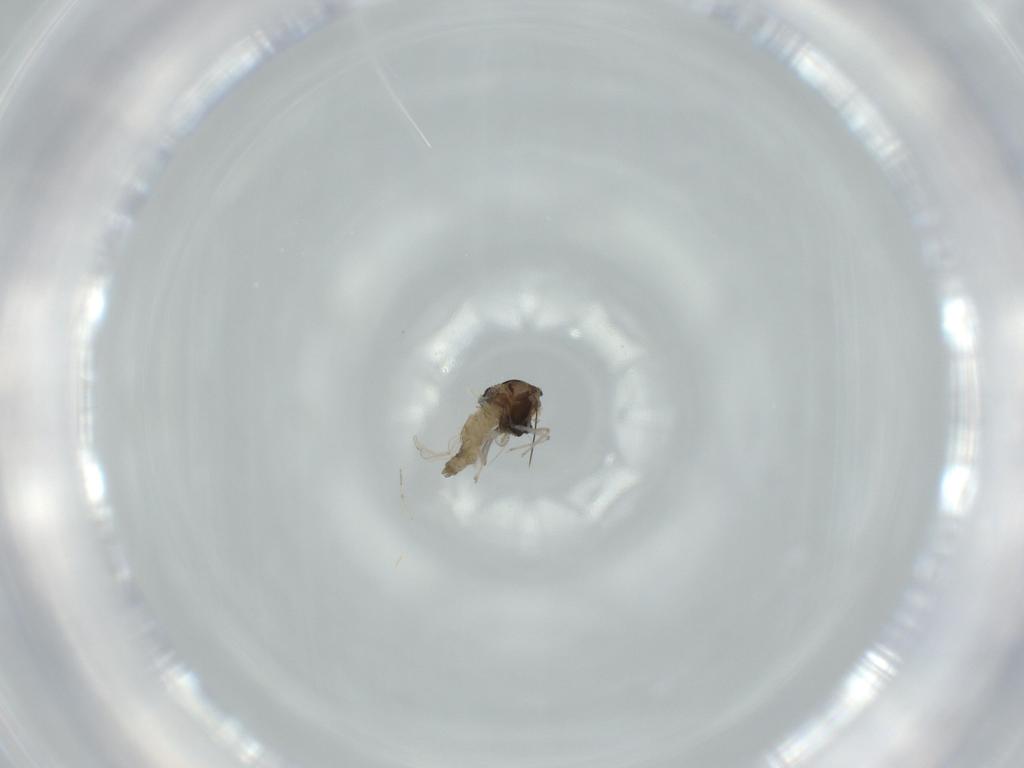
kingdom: Animalia
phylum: Arthropoda
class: Insecta
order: Diptera
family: Chironomidae
